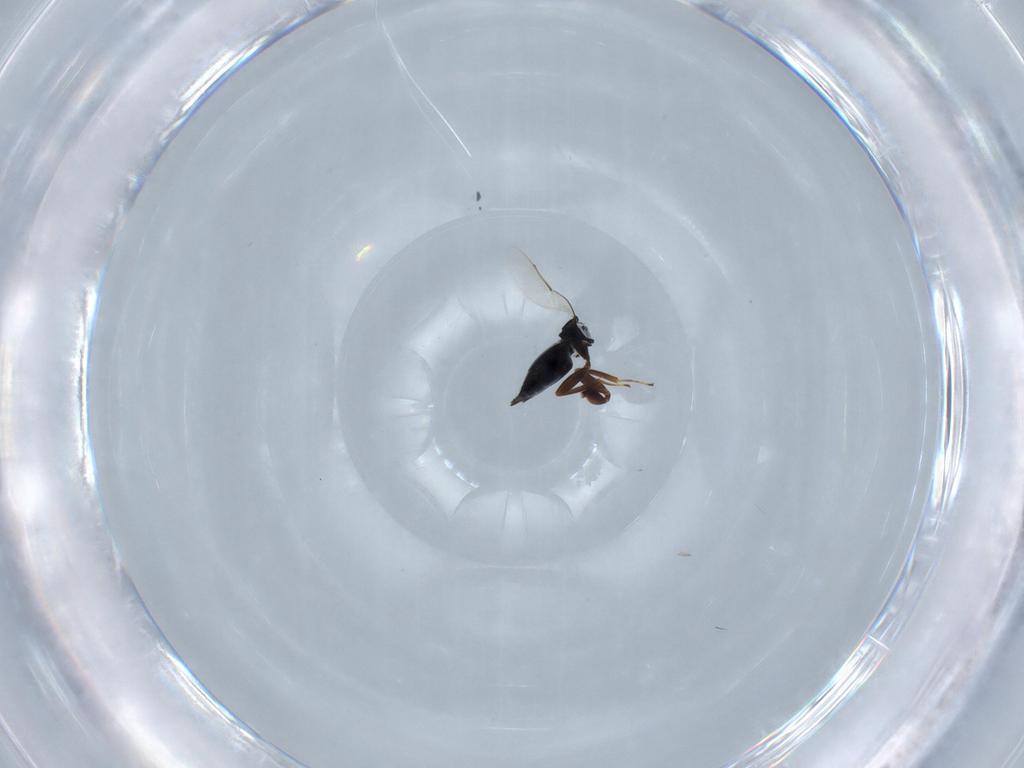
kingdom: Animalia
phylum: Arthropoda
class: Insecta
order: Hymenoptera
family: Eunotidae
